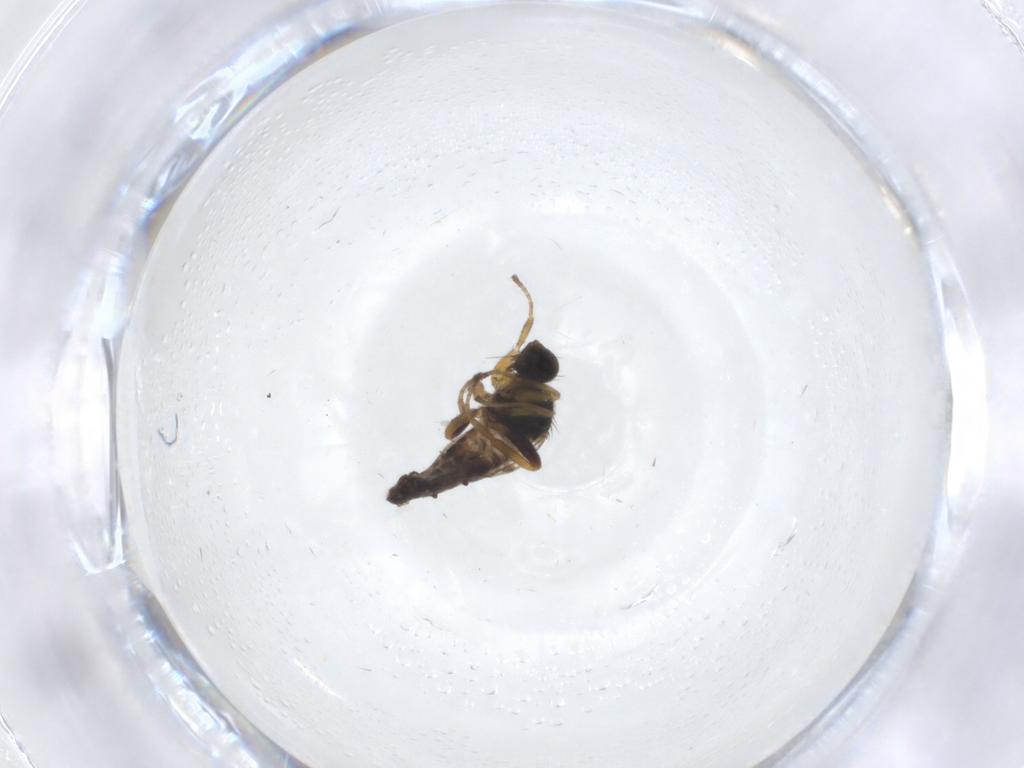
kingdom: Animalia
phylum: Arthropoda
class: Insecta
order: Diptera
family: Hybotidae
